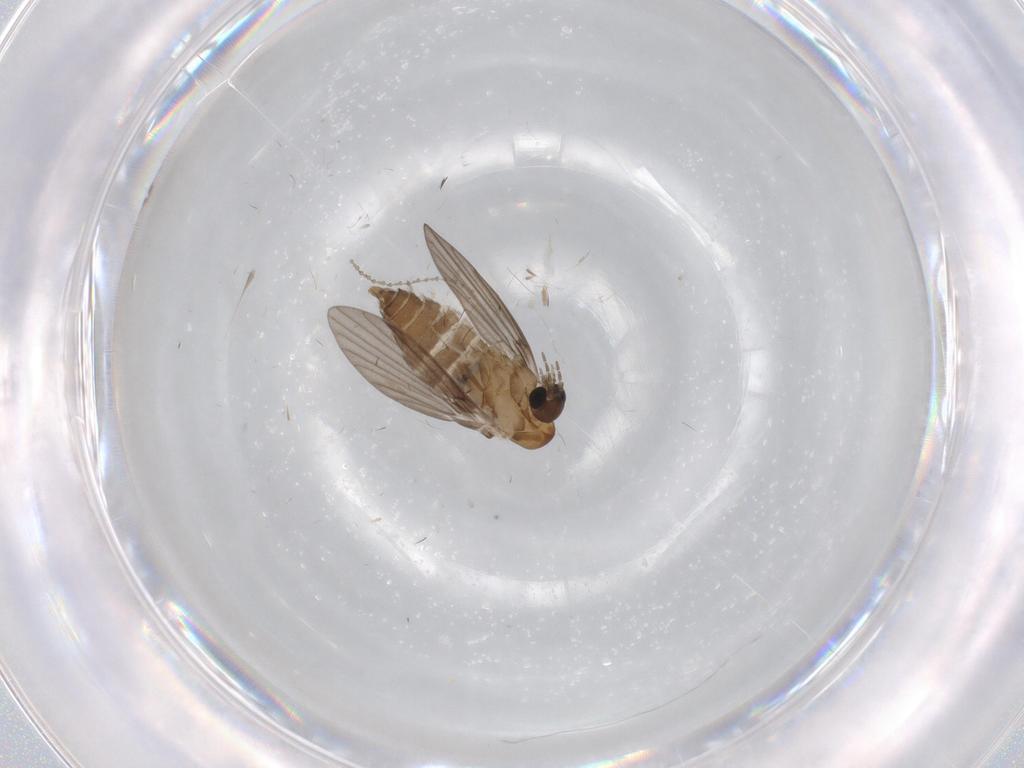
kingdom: Animalia
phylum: Arthropoda
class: Insecta
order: Diptera
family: Cecidomyiidae
